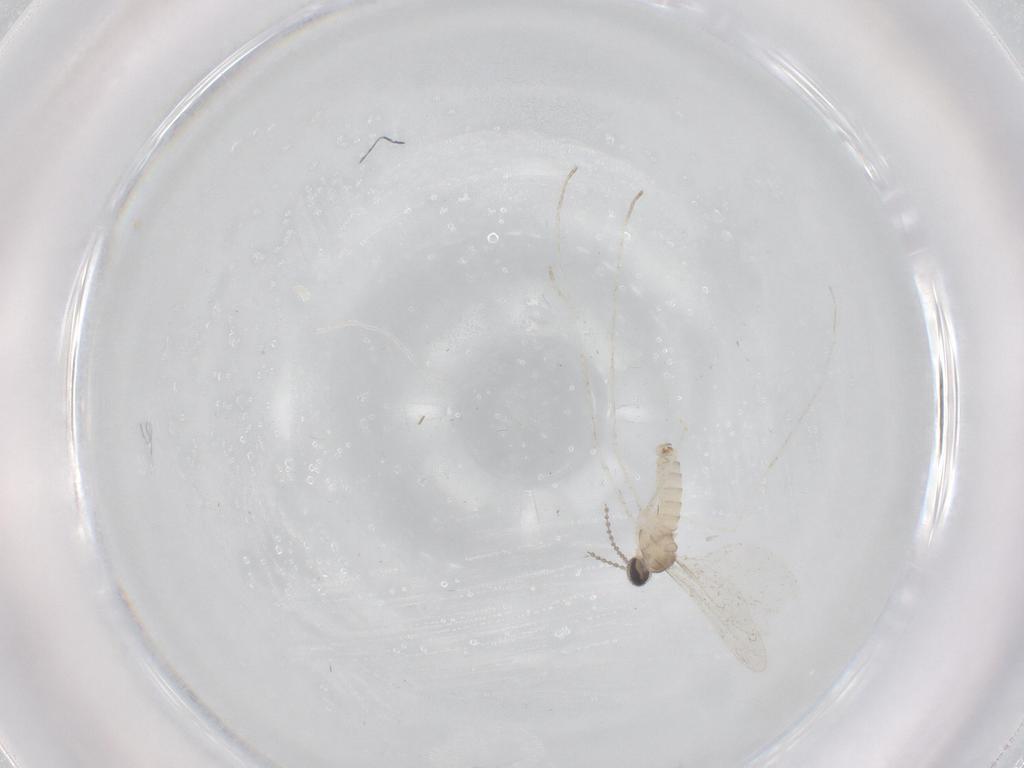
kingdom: Animalia
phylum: Arthropoda
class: Insecta
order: Diptera
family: Cecidomyiidae
